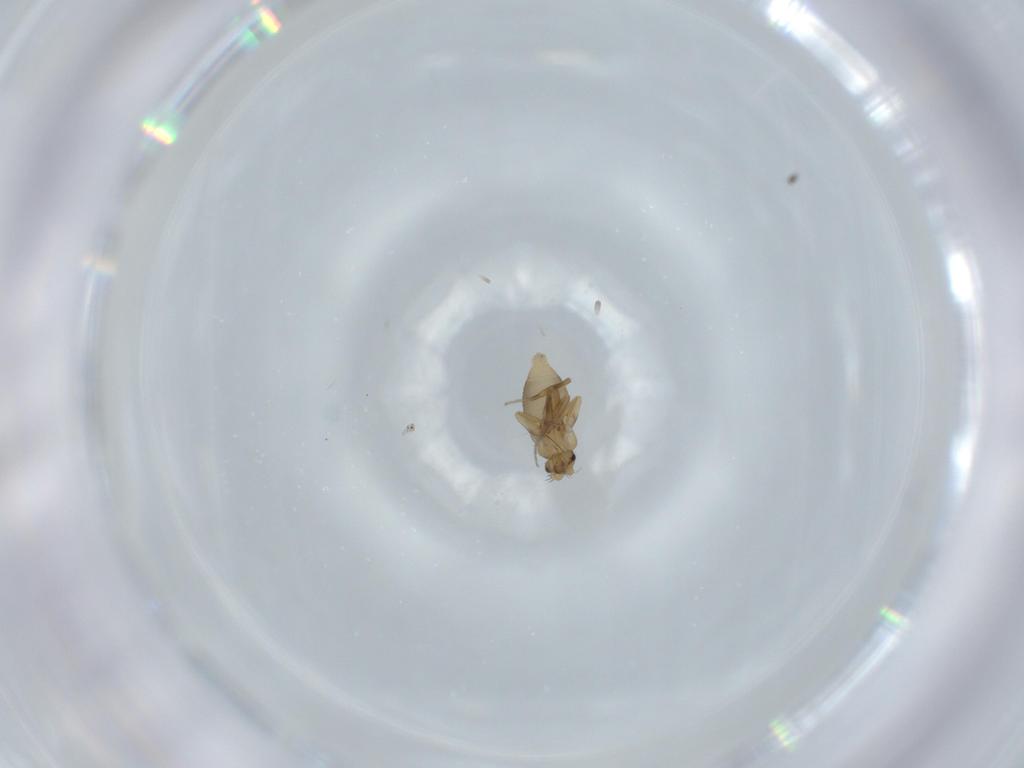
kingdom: Animalia
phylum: Arthropoda
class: Insecta
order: Diptera
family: Phoridae
